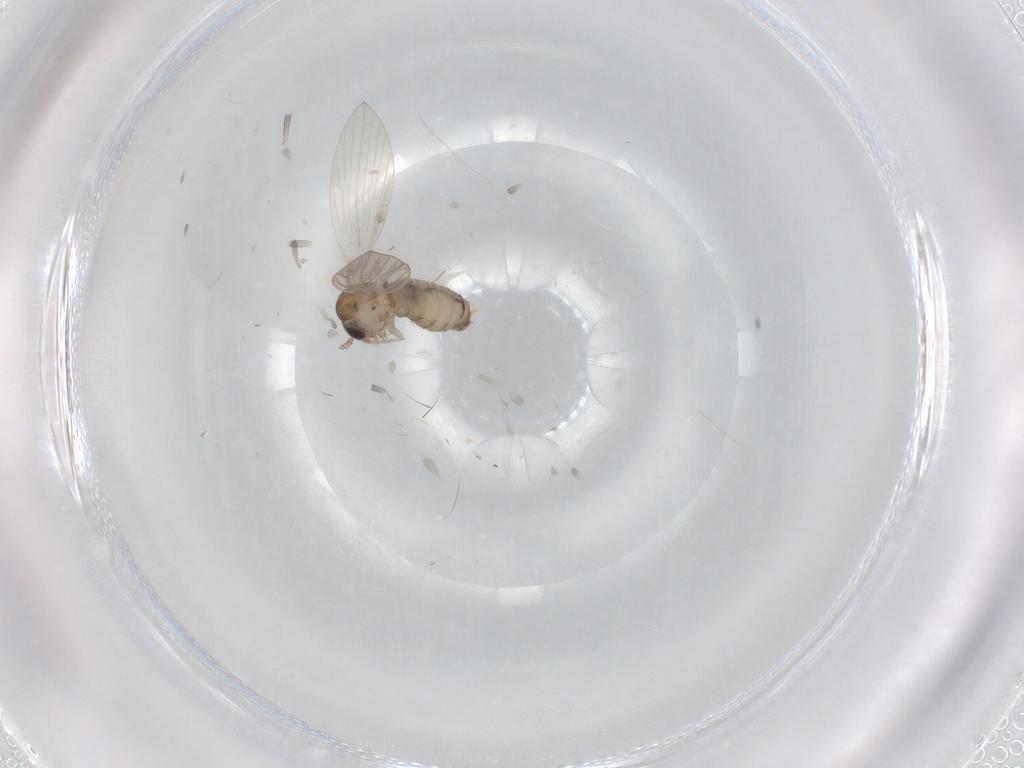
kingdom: Animalia
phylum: Arthropoda
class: Insecta
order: Diptera
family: Psychodidae
